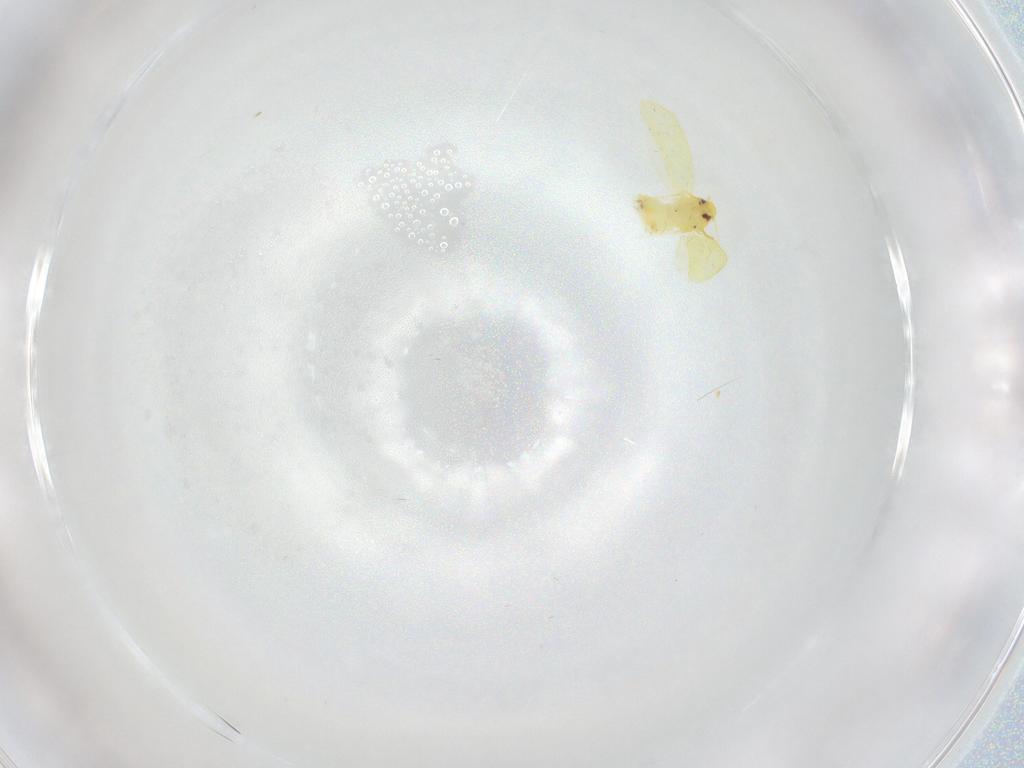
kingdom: Animalia
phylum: Arthropoda
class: Insecta
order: Hemiptera
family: Aleyrodidae
